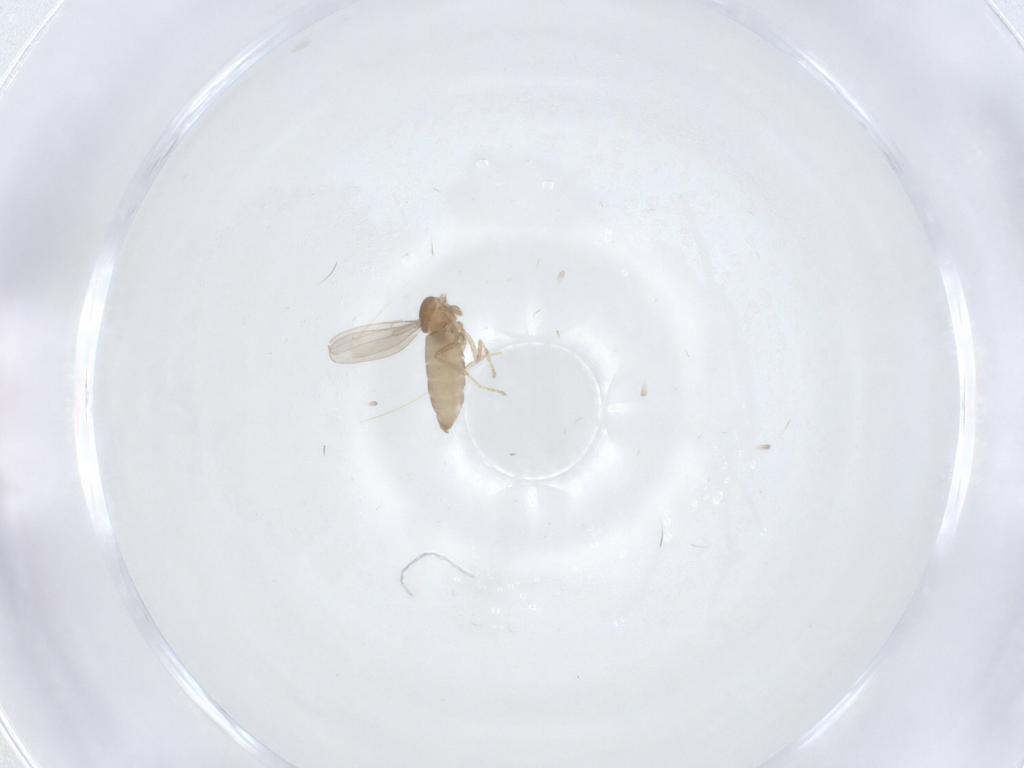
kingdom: Animalia
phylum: Arthropoda
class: Insecta
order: Diptera
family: Cecidomyiidae
